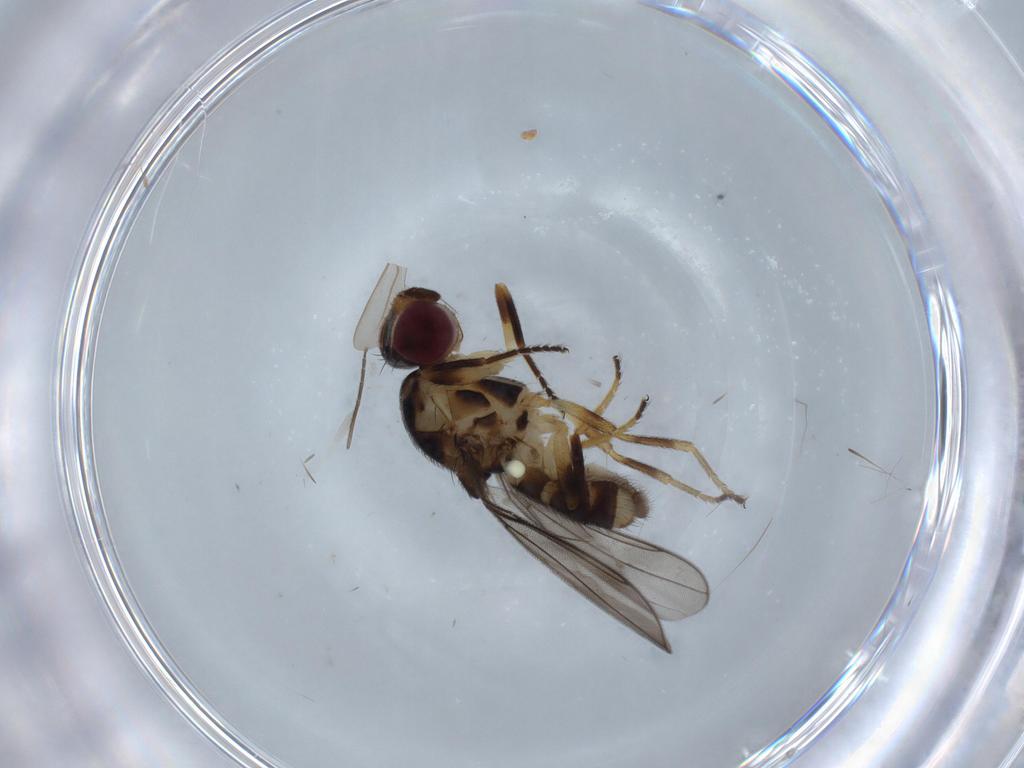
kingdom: Animalia
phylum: Arthropoda
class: Insecta
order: Diptera
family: Chloropidae
